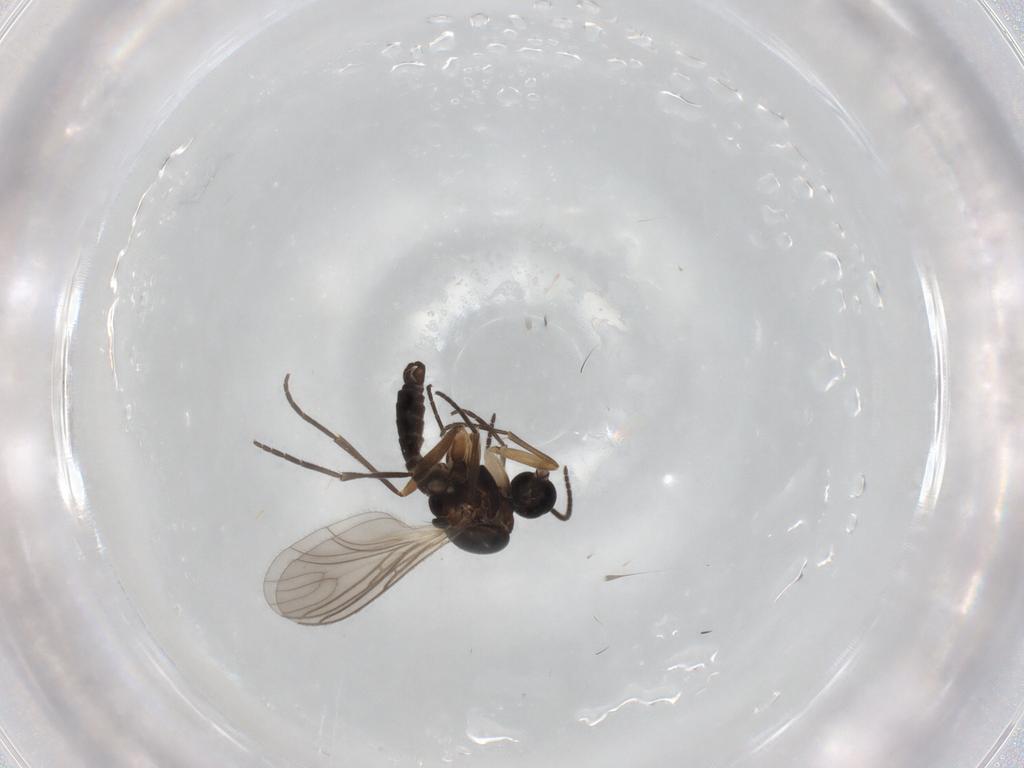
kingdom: Animalia
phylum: Arthropoda
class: Insecta
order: Diptera
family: Sciaridae
